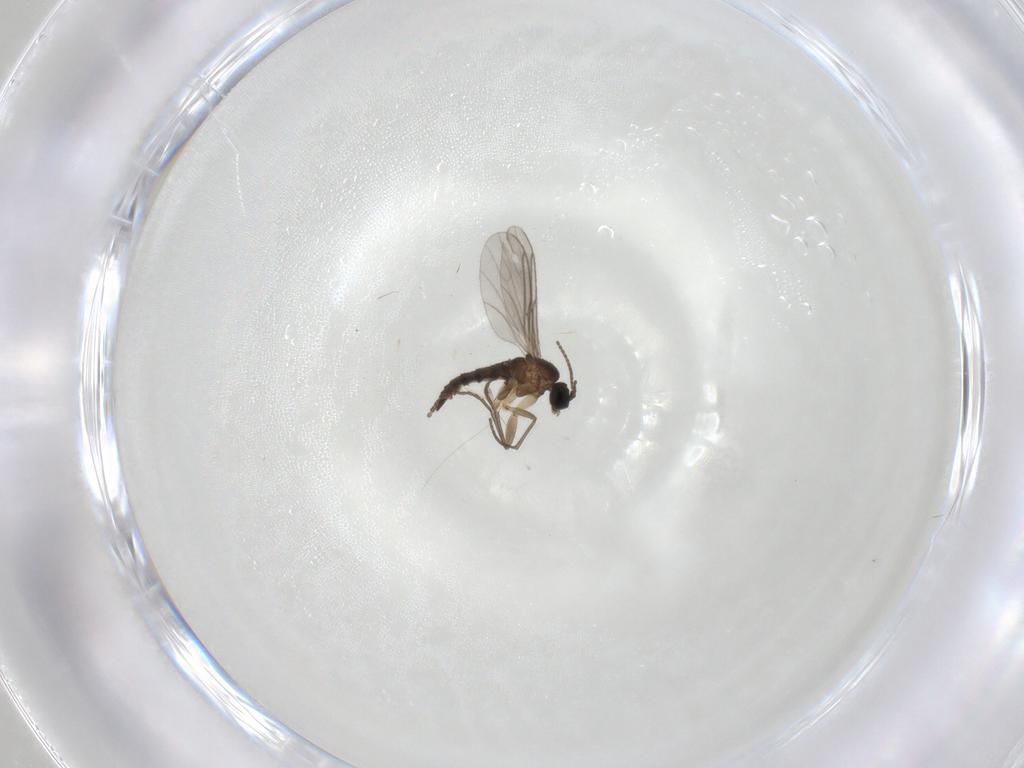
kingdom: Animalia
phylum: Arthropoda
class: Insecta
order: Diptera
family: Sciaridae
